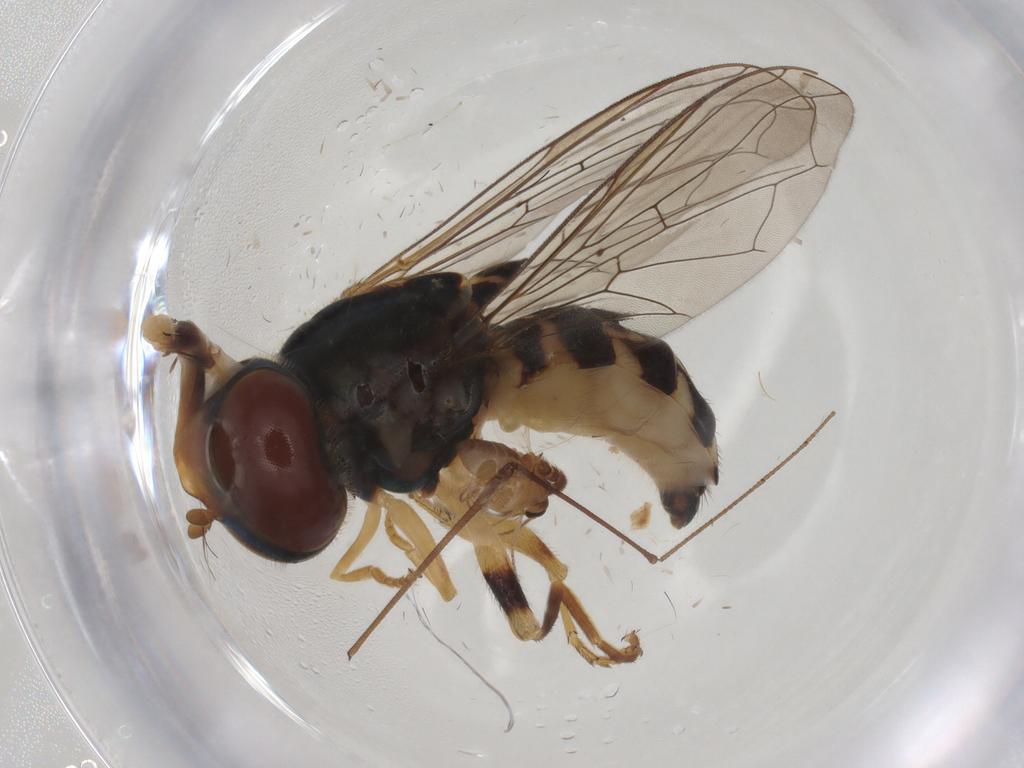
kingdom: Animalia
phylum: Arthropoda
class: Insecta
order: Diptera
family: Syrphidae
